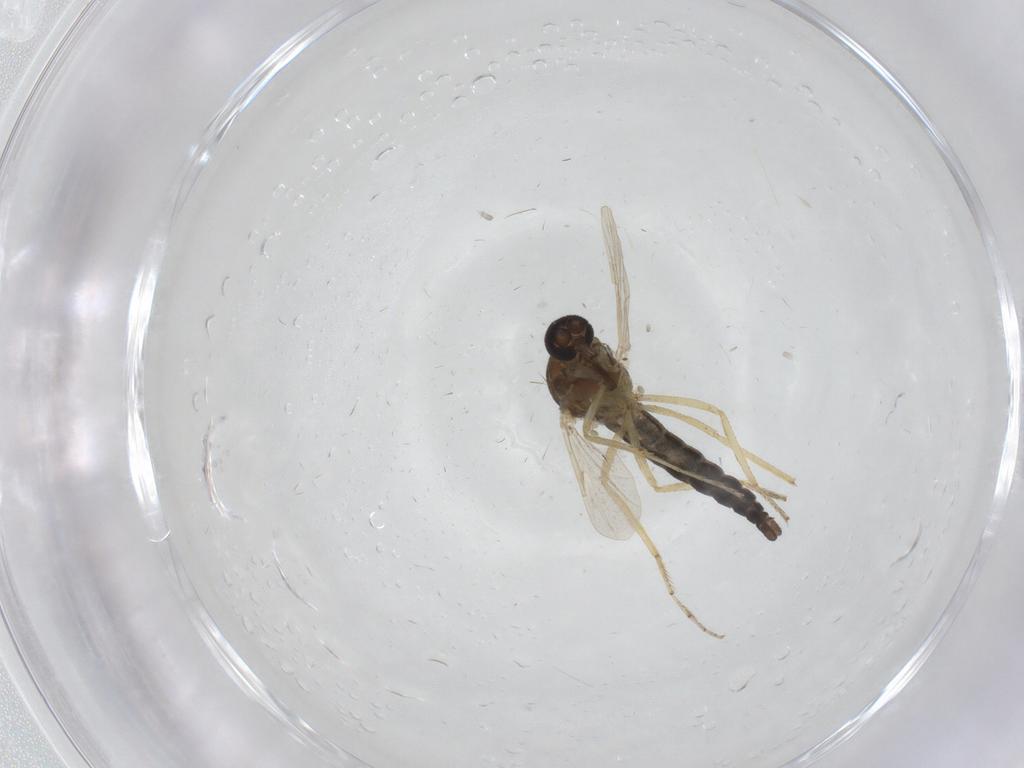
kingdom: Animalia
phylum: Arthropoda
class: Insecta
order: Diptera
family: Ceratopogonidae
